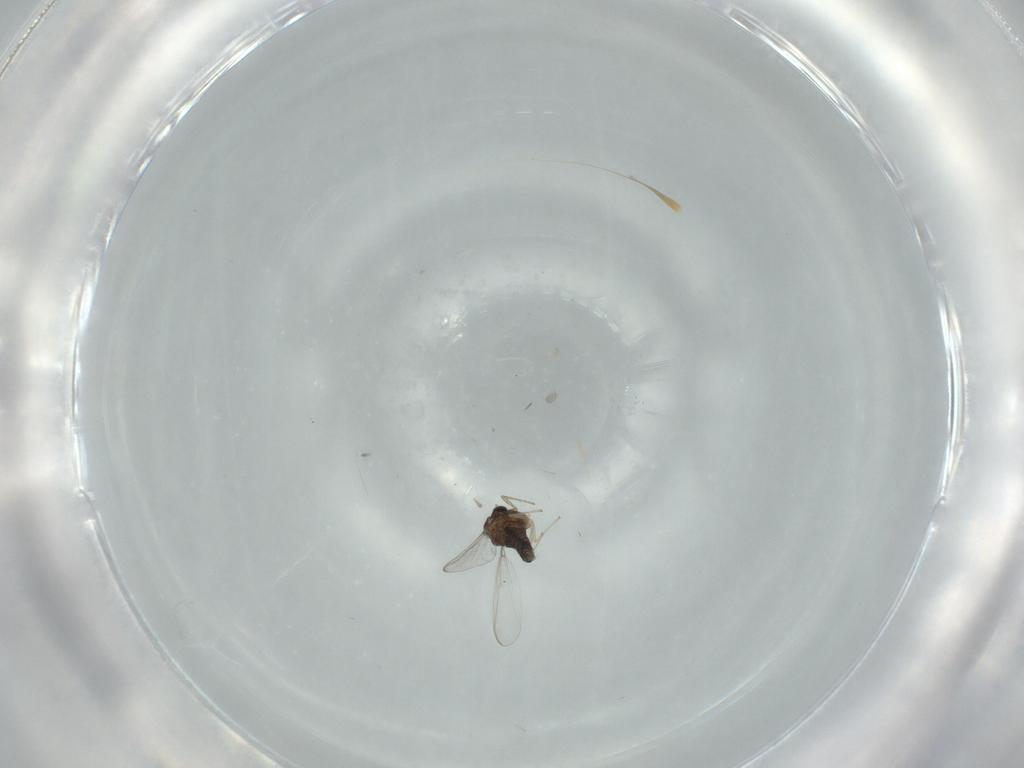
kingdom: Animalia
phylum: Arthropoda
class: Insecta
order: Diptera
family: Chironomidae
